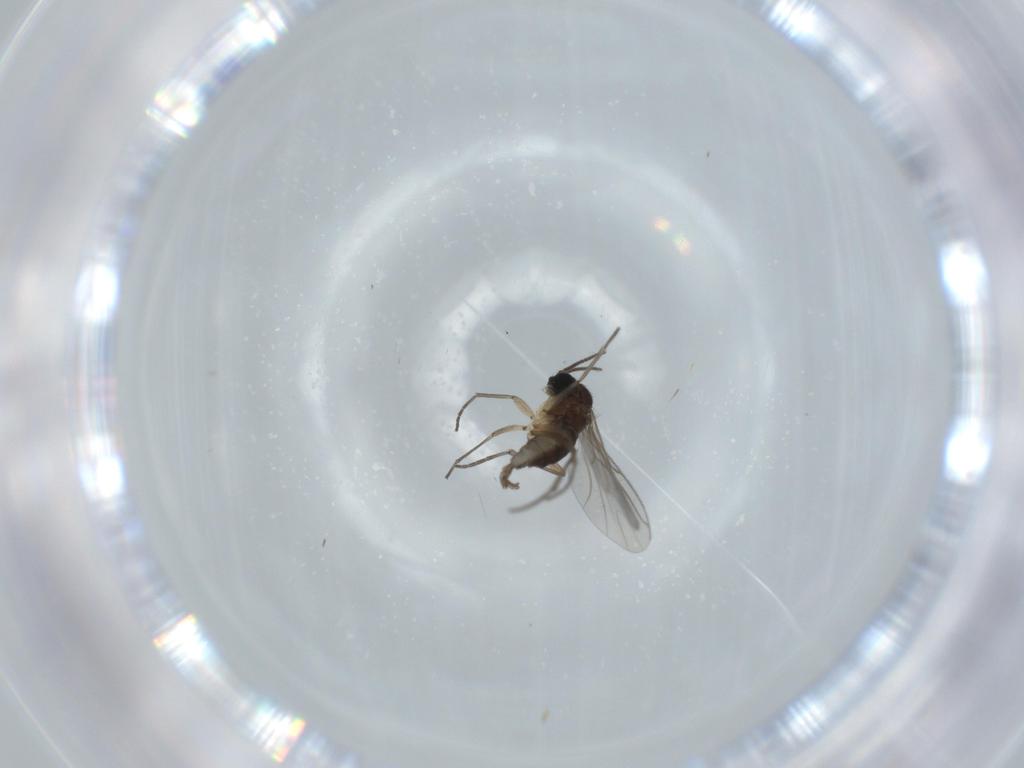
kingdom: Animalia
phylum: Arthropoda
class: Insecta
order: Diptera
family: Sciaridae
